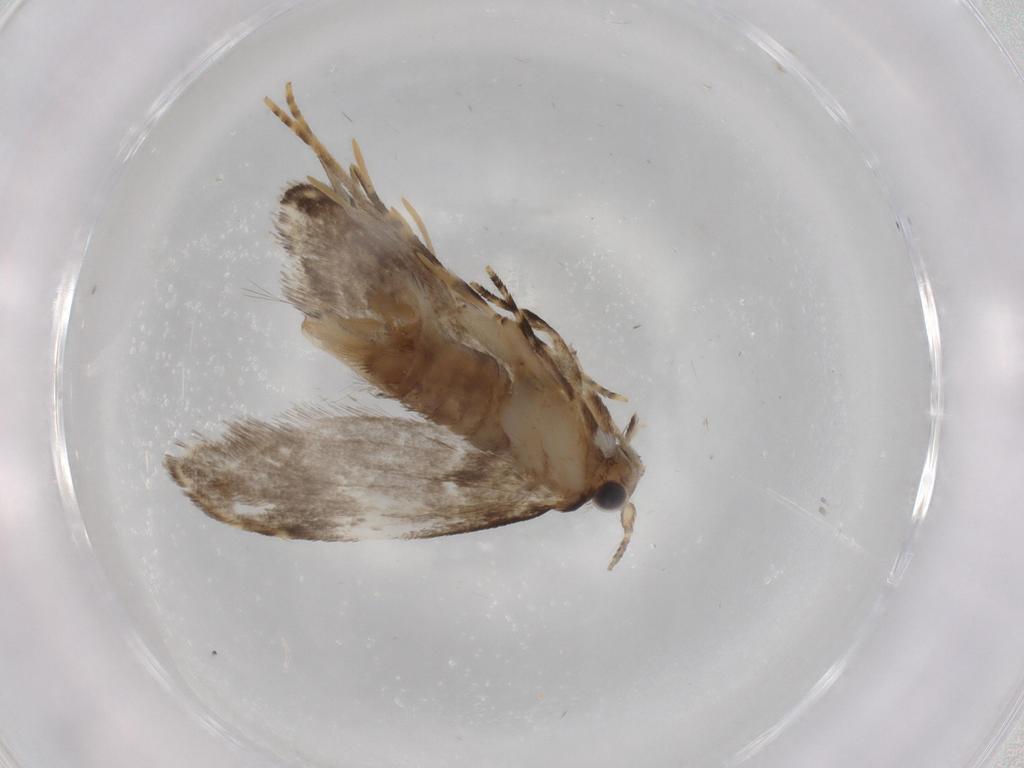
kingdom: Animalia
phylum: Arthropoda
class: Insecta
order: Lepidoptera
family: Tineidae
